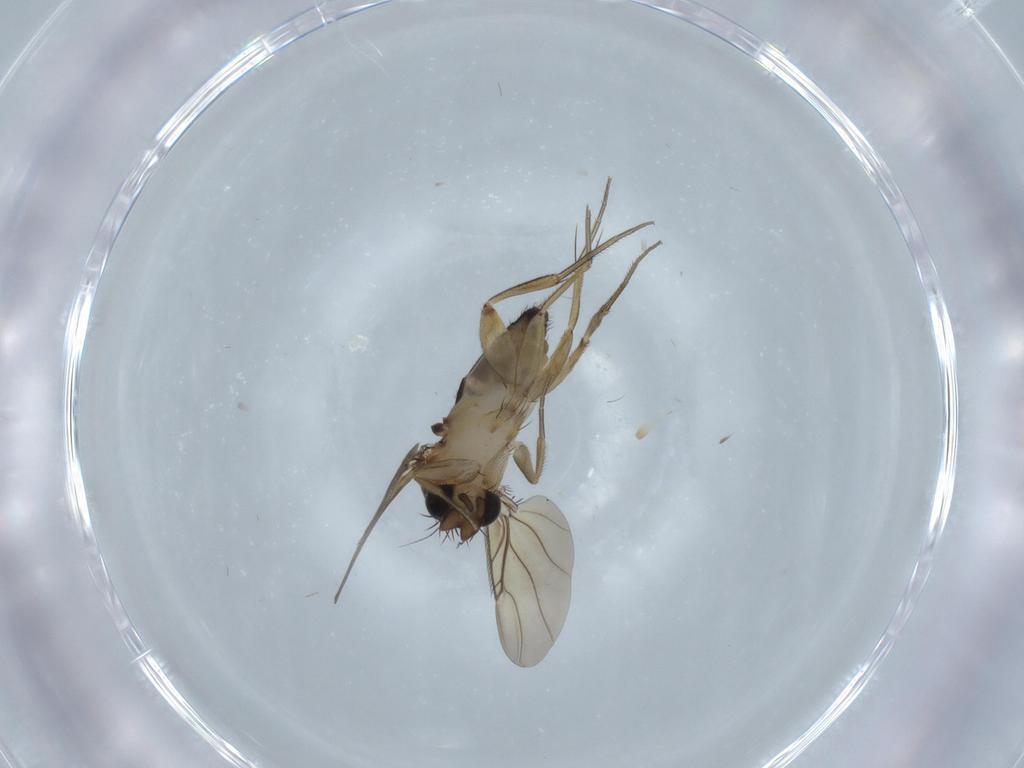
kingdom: Animalia
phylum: Arthropoda
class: Insecta
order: Diptera
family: Phoridae
